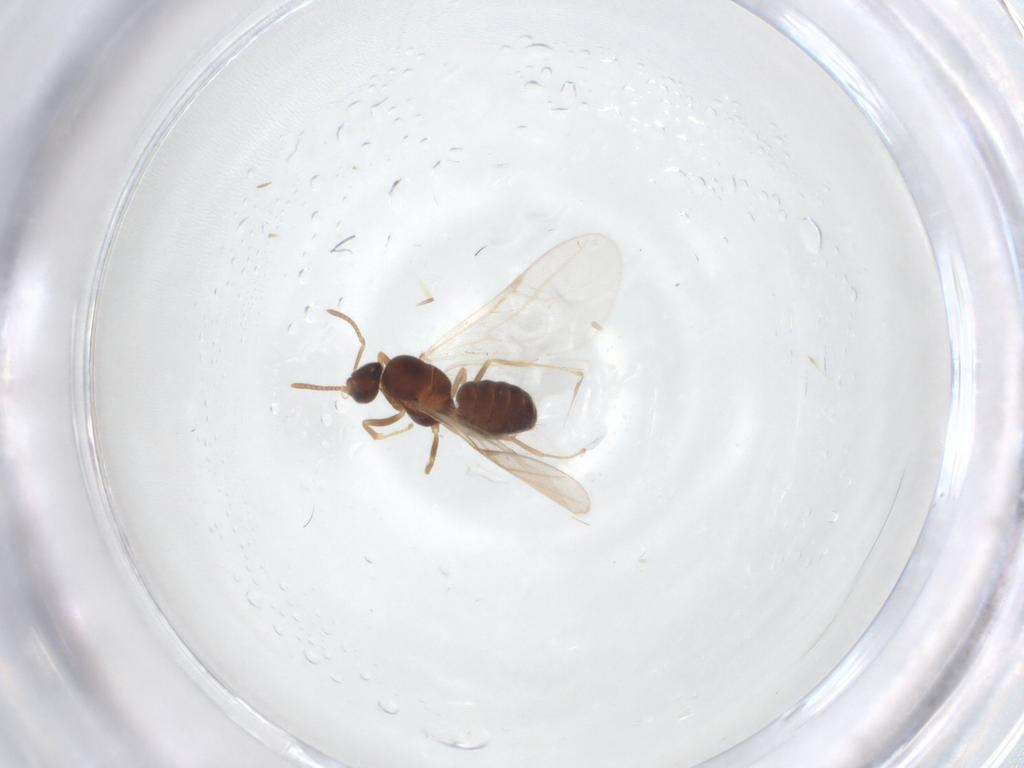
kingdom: Animalia
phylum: Arthropoda
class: Insecta
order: Hymenoptera
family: Formicidae
